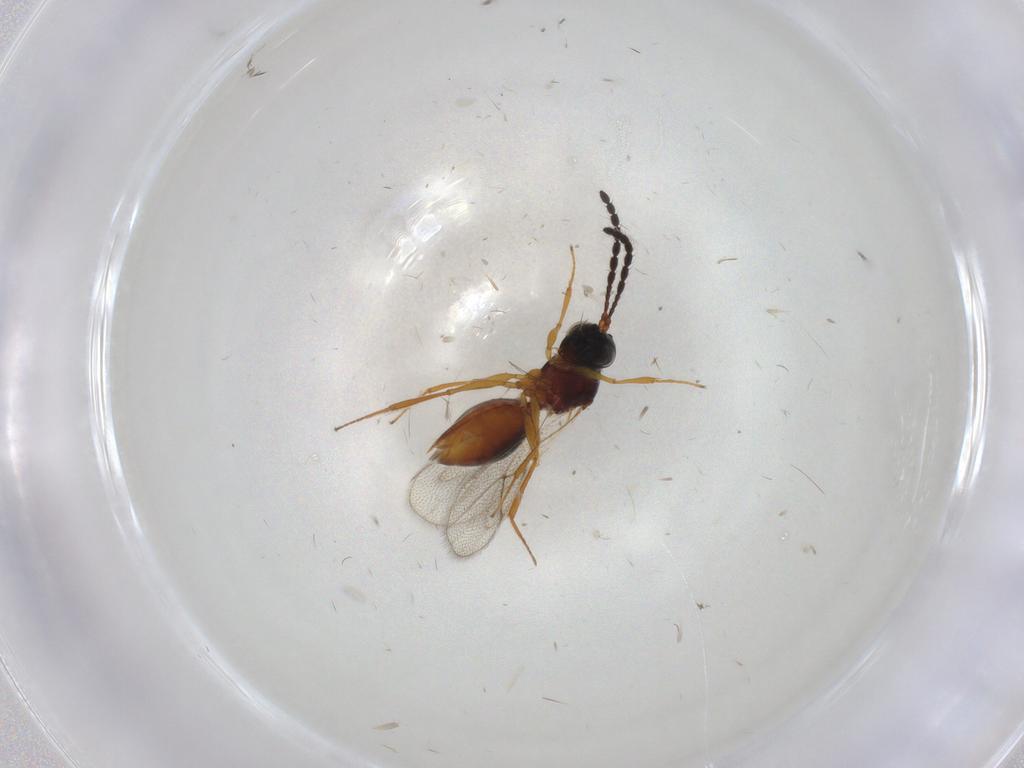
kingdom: Animalia
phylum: Arthropoda
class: Insecta
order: Hymenoptera
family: Figitidae
